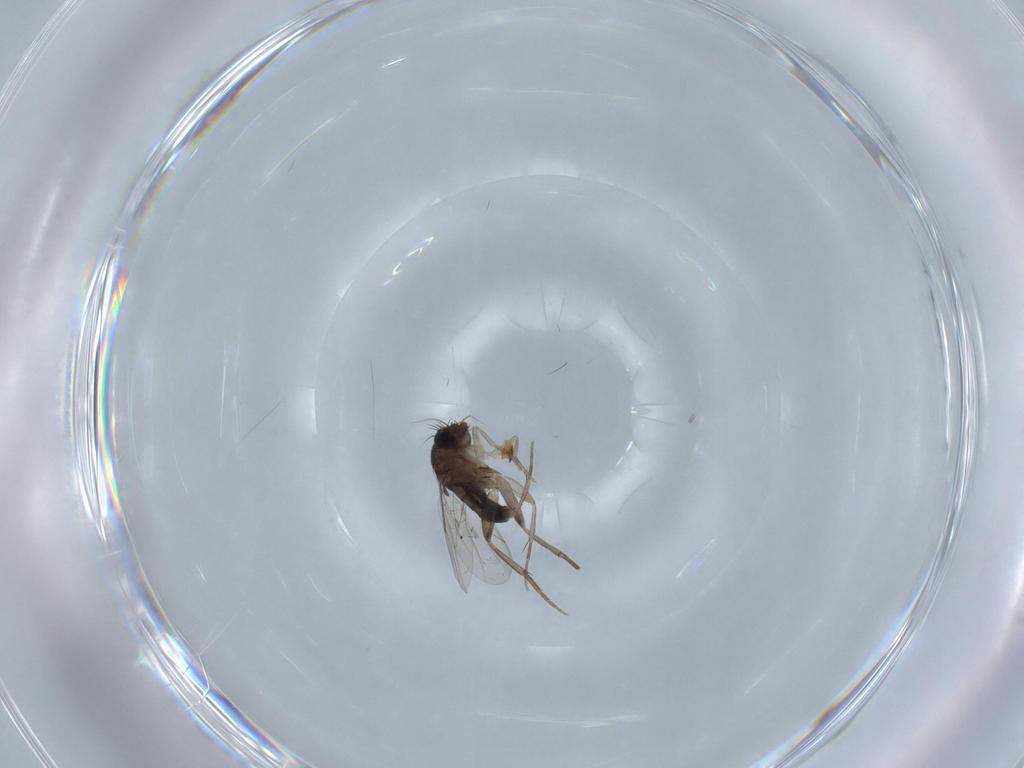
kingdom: Animalia
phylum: Arthropoda
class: Insecta
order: Diptera
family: Phoridae
